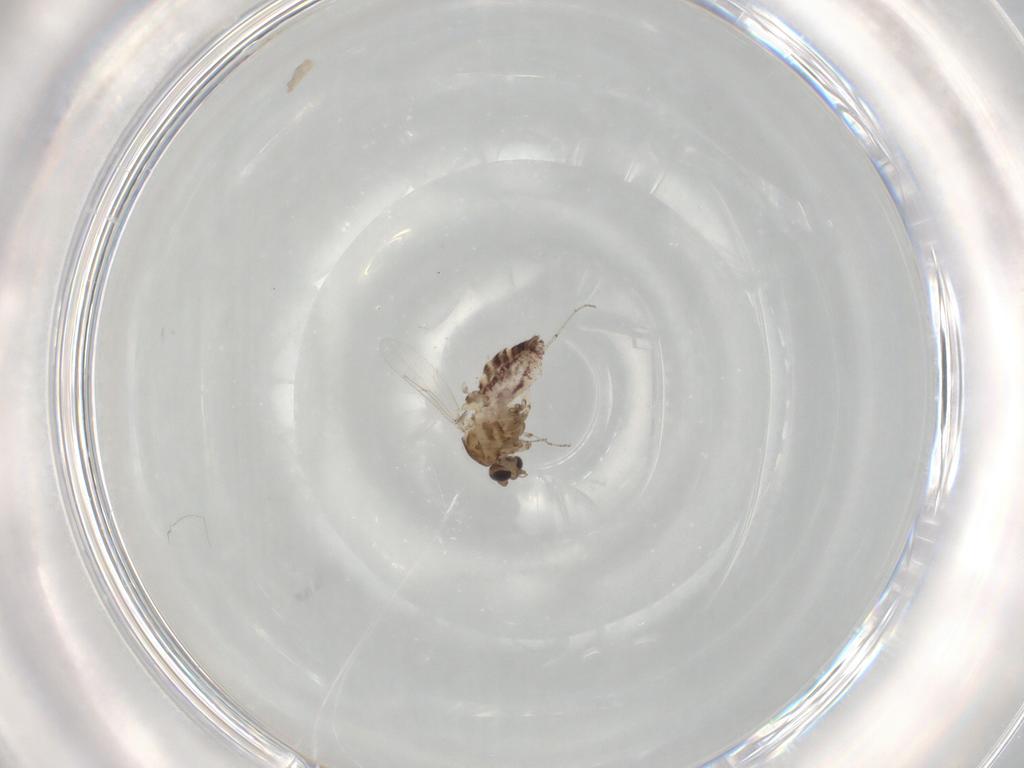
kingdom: Animalia
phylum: Arthropoda
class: Insecta
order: Diptera
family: Ceratopogonidae
